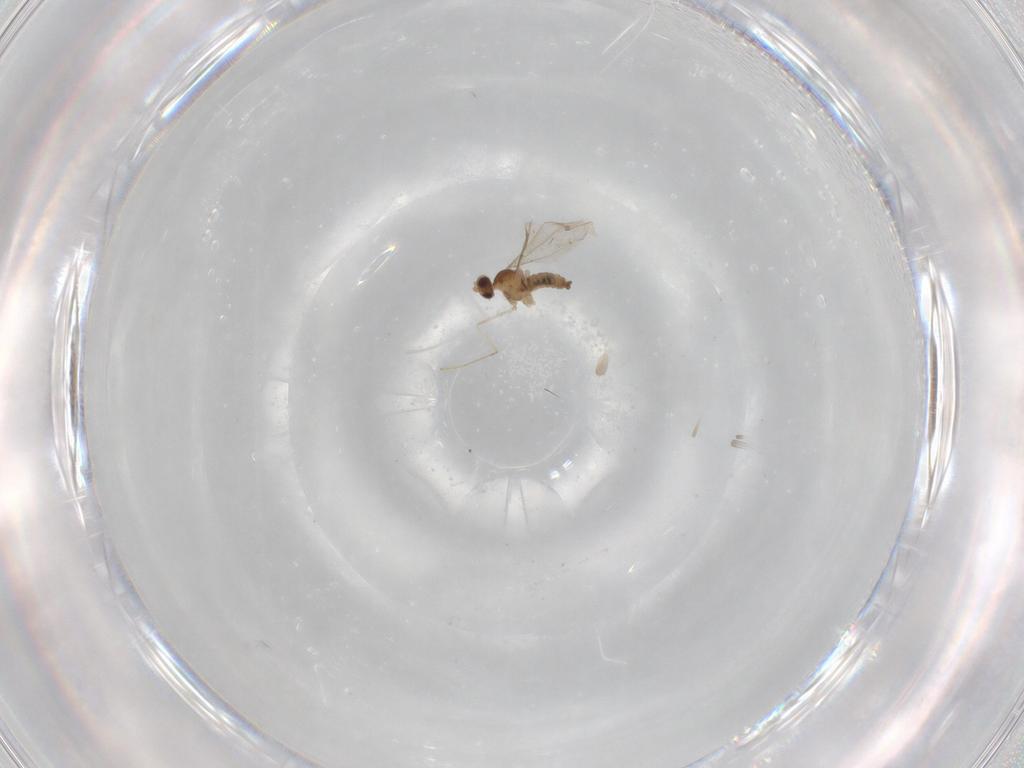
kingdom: Animalia
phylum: Arthropoda
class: Insecta
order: Diptera
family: Cecidomyiidae
